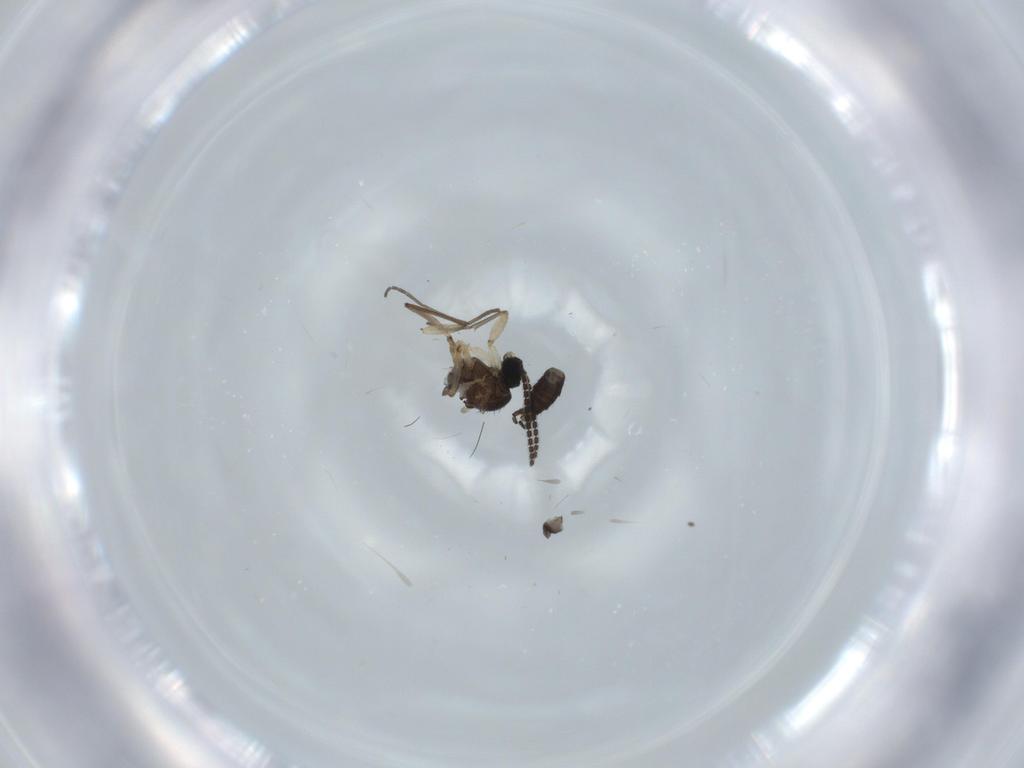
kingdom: Animalia
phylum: Arthropoda
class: Insecta
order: Diptera
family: Sciaridae
